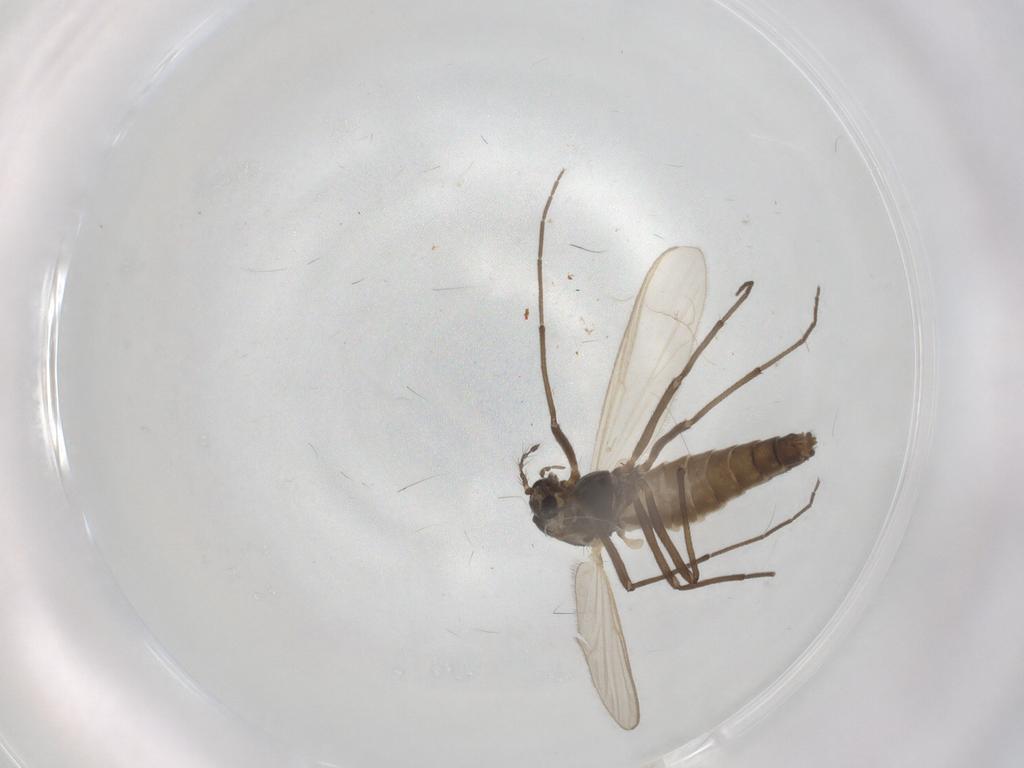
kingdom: Animalia
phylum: Arthropoda
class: Insecta
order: Diptera
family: Chironomidae
